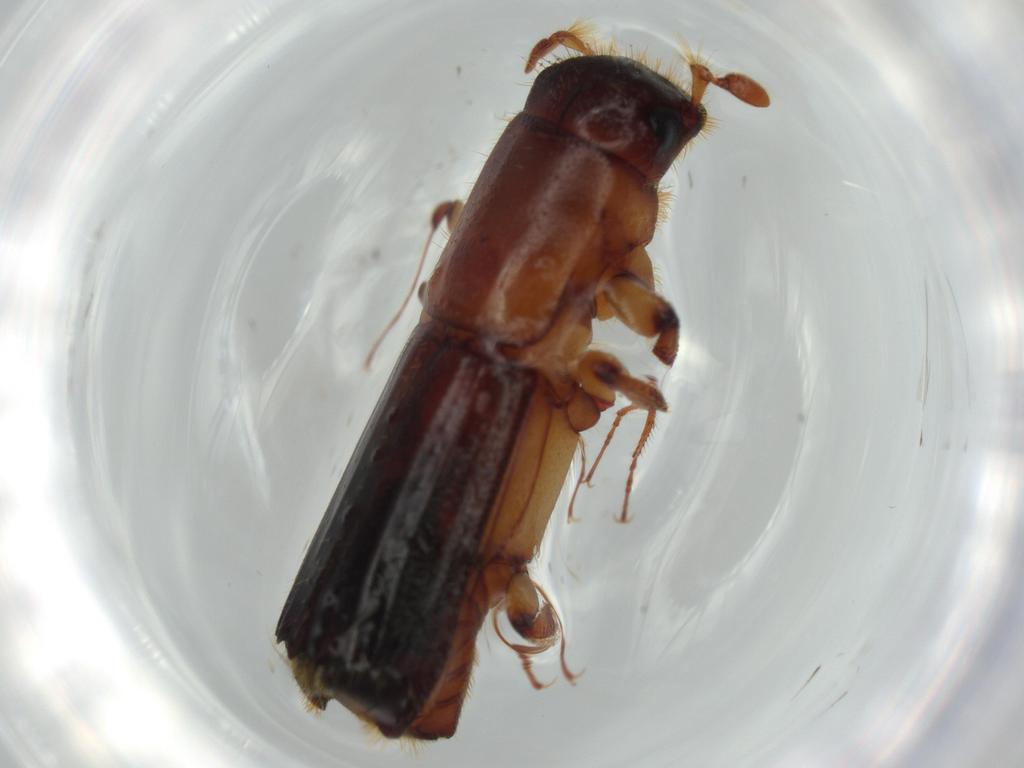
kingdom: Animalia
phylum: Arthropoda
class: Insecta
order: Coleoptera
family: Curculionidae
